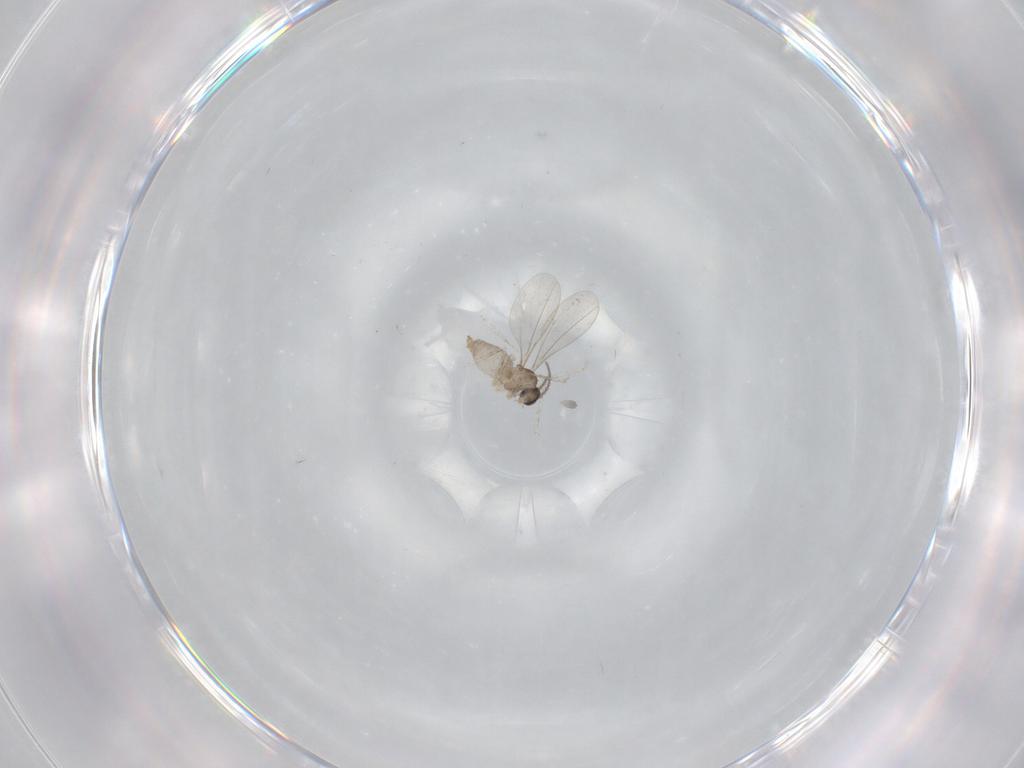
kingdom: Animalia
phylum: Arthropoda
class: Insecta
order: Diptera
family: Cecidomyiidae
